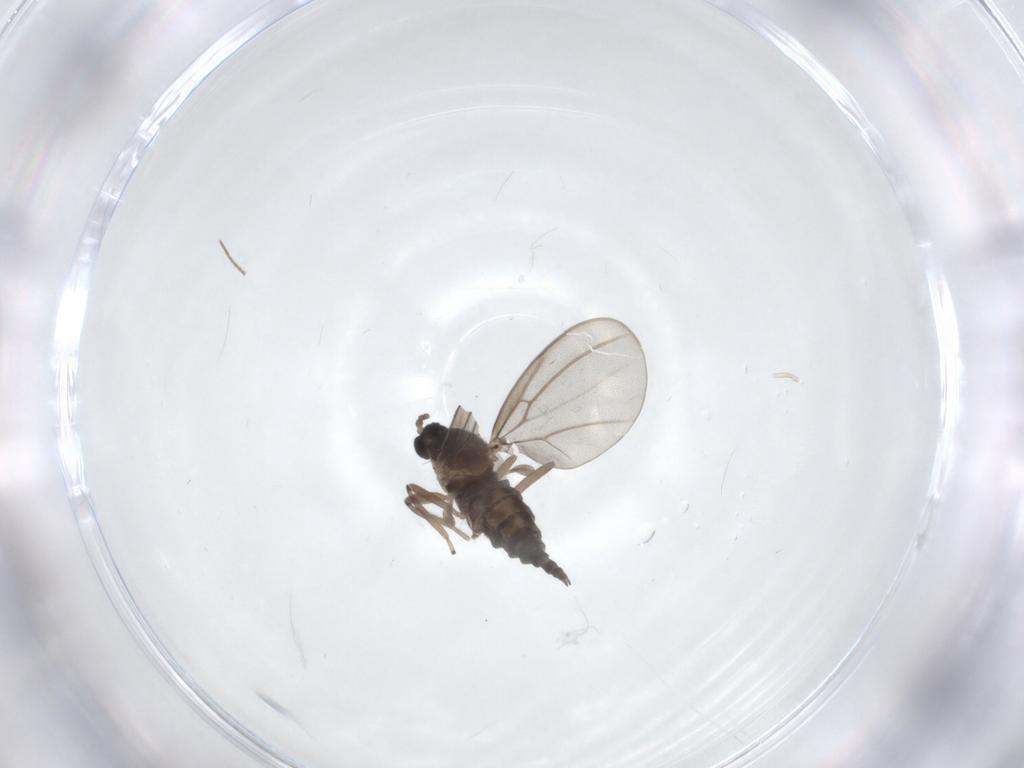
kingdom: Animalia
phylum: Arthropoda
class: Insecta
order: Diptera
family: Cecidomyiidae
